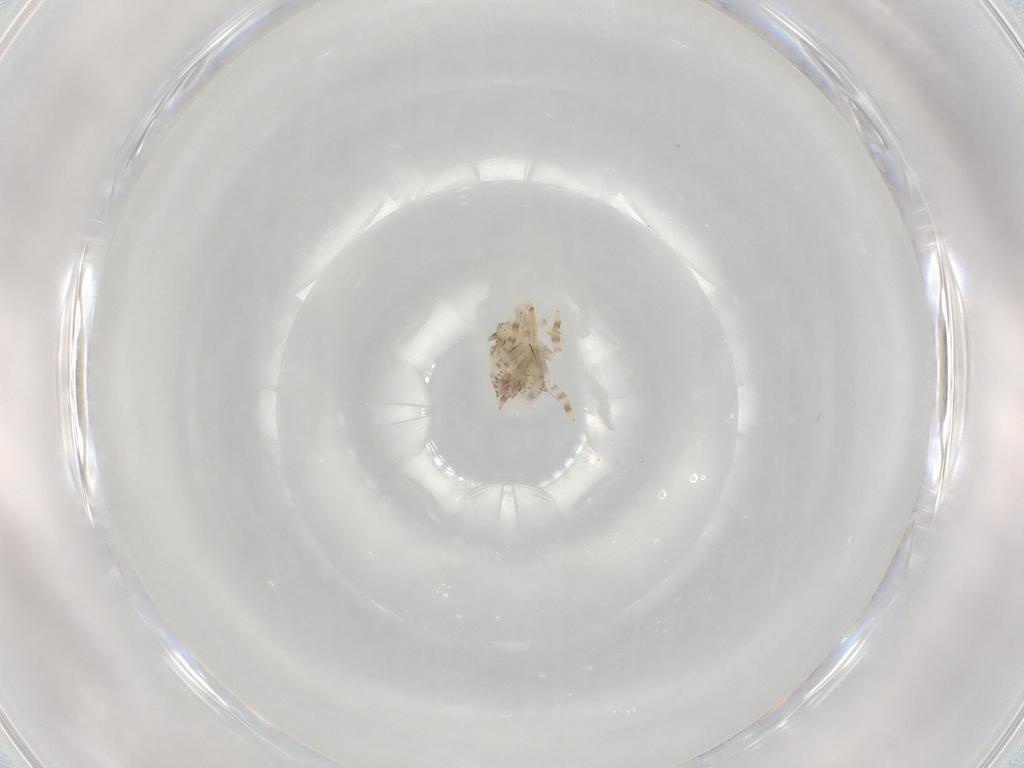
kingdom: Animalia
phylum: Arthropoda
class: Insecta
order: Hemiptera
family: Acanaloniidae
